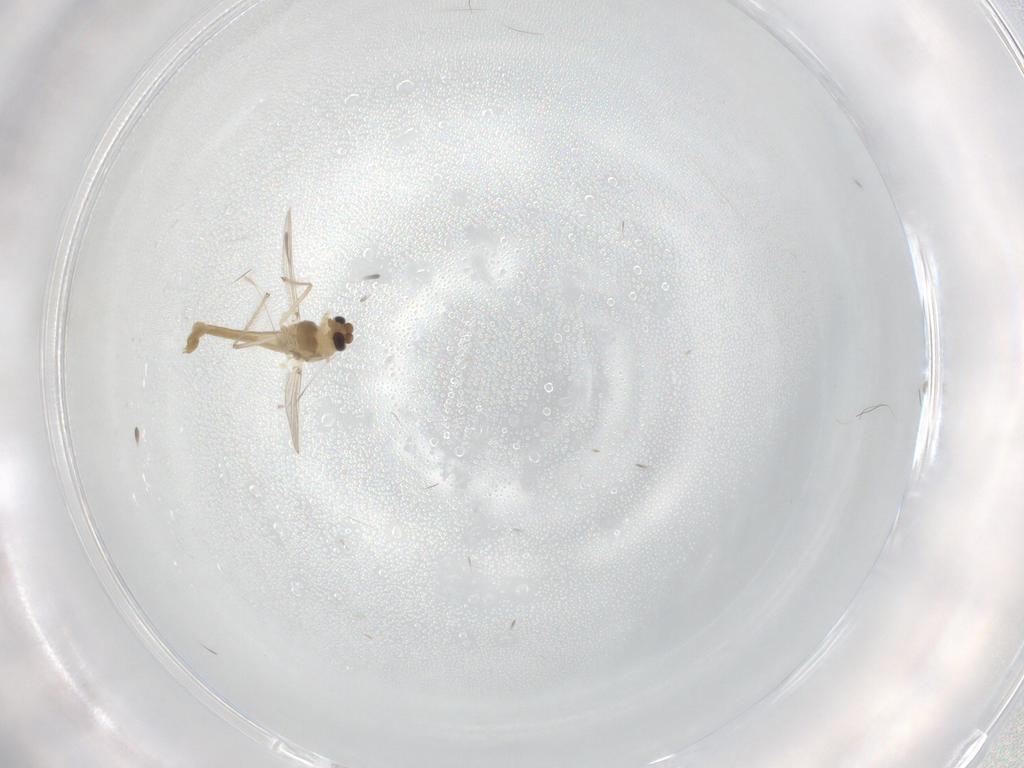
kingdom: Animalia
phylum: Arthropoda
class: Insecta
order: Diptera
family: Chironomidae
